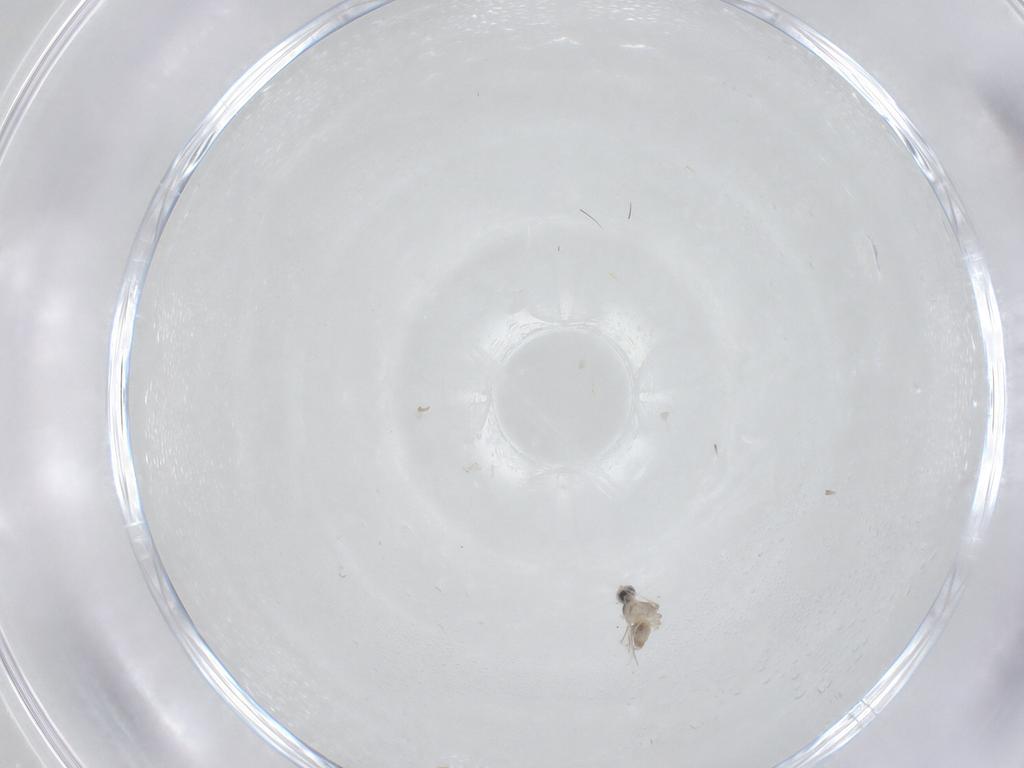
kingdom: Animalia
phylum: Arthropoda
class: Insecta
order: Diptera
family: Cecidomyiidae
